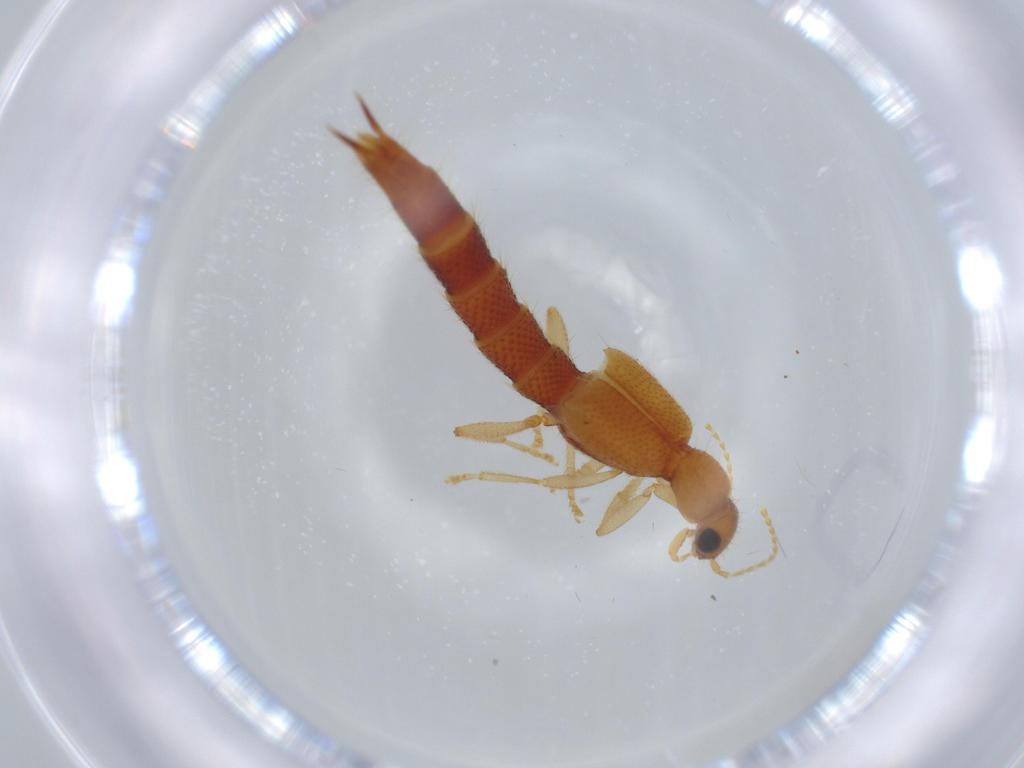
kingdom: Animalia
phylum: Arthropoda
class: Insecta
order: Coleoptera
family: Staphylinidae
